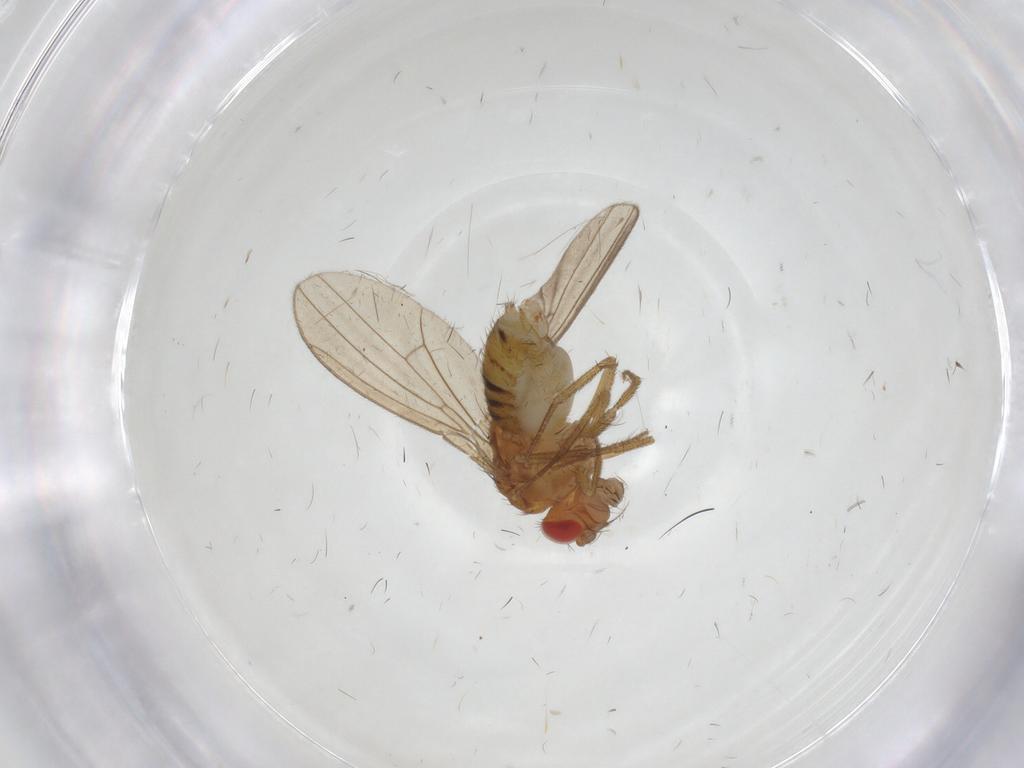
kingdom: Animalia
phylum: Arthropoda
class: Insecta
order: Diptera
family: Drosophilidae
